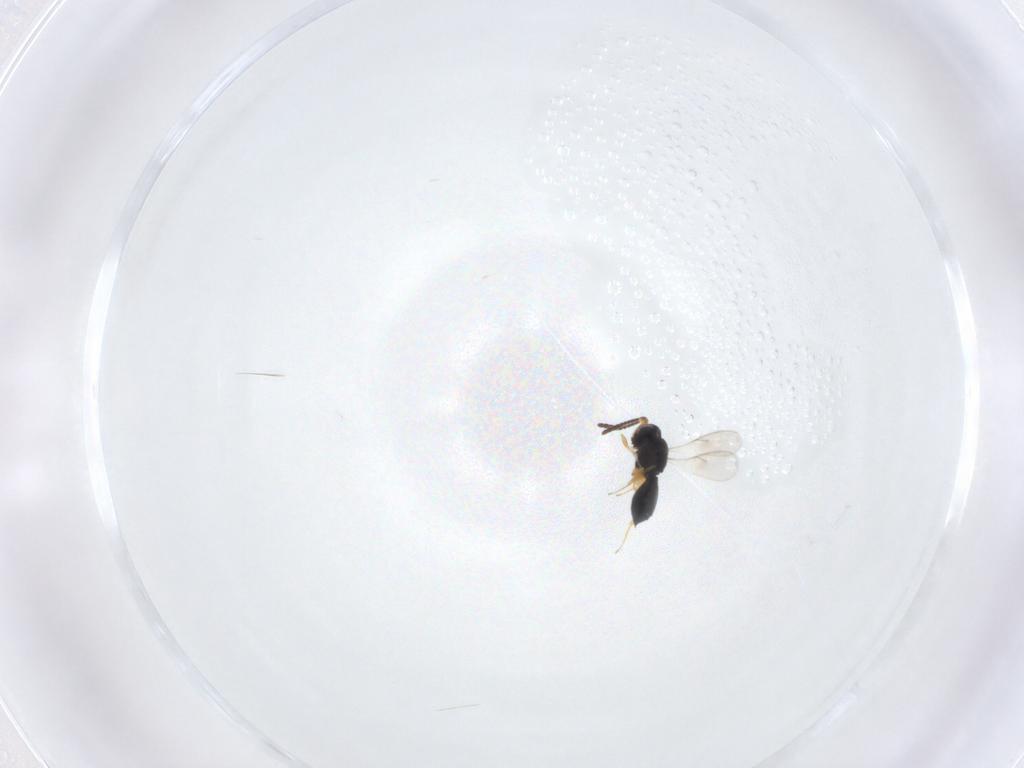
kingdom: Animalia
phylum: Arthropoda
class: Insecta
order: Hymenoptera
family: Scelionidae
